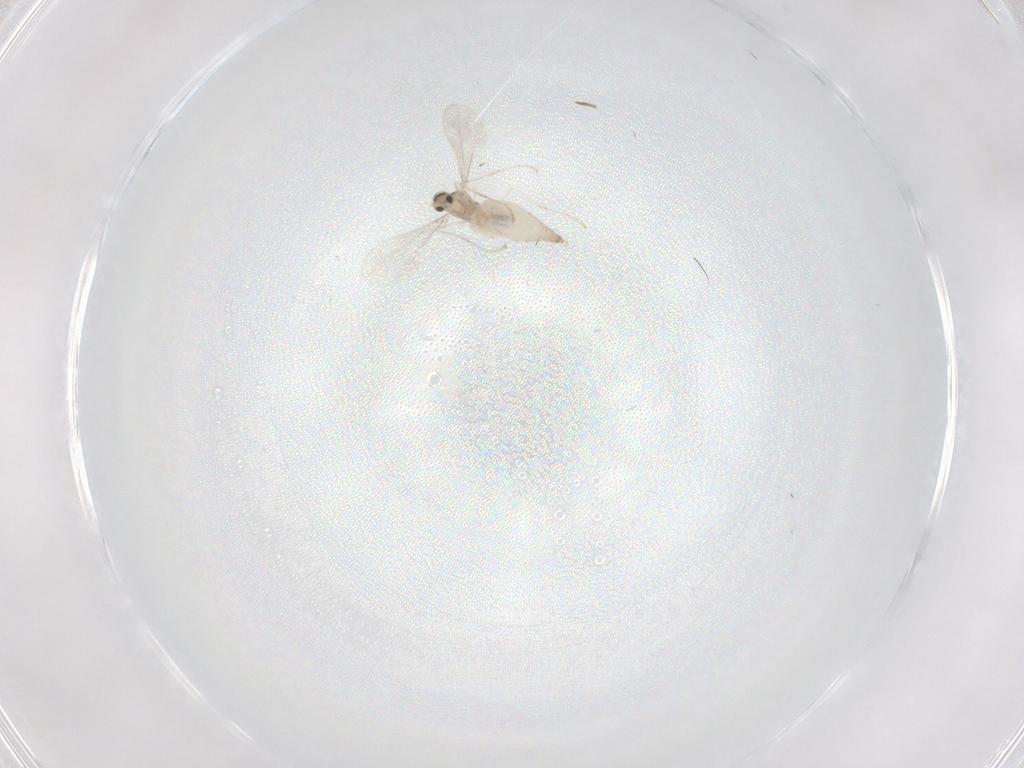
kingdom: Animalia
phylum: Arthropoda
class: Insecta
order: Diptera
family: Cecidomyiidae
